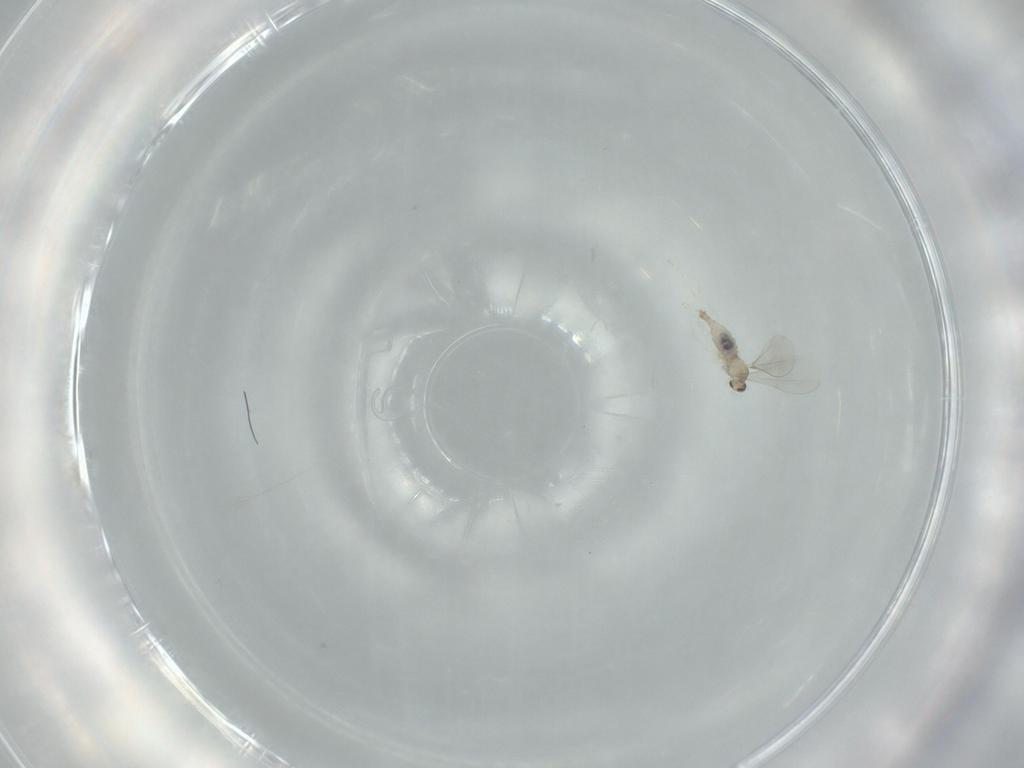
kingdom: Animalia
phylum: Arthropoda
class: Insecta
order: Diptera
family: Cecidomyiidae
